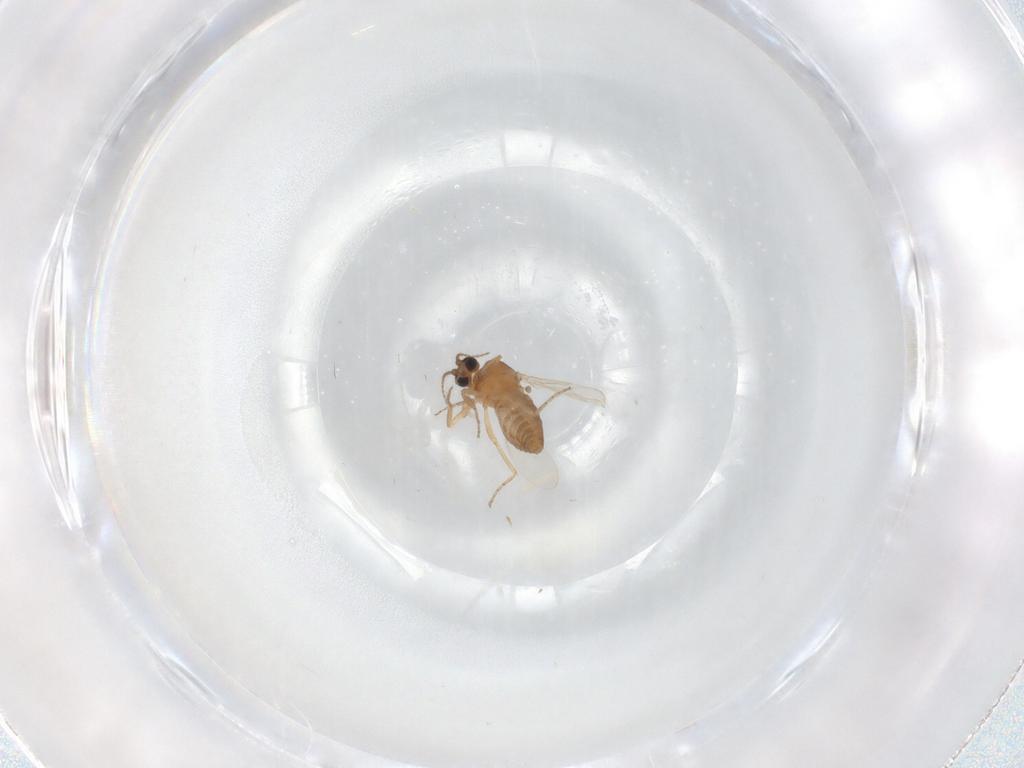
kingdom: Animalia
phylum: Arthropoda
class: Insecta
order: Diptera
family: Ceratopogonidae
